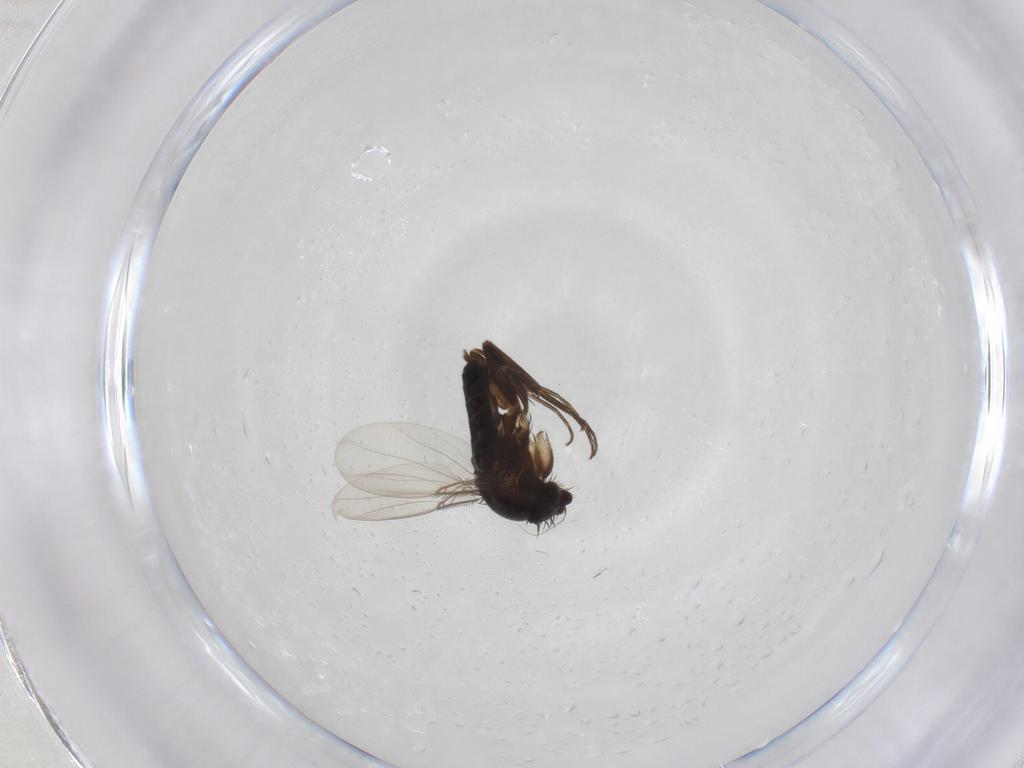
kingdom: Animalia
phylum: Arthropoda
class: Insecta
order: Diptera
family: Phoridae
